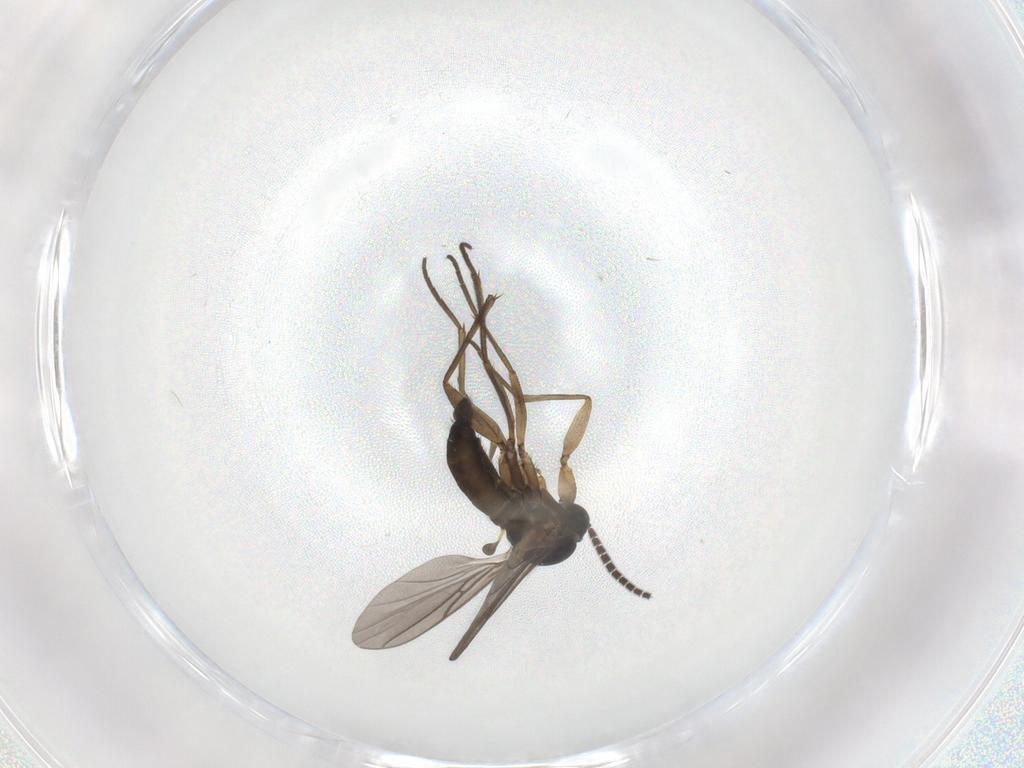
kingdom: Animalia
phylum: Arthropoda
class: Insecta
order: Diptera
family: Sciaridae
